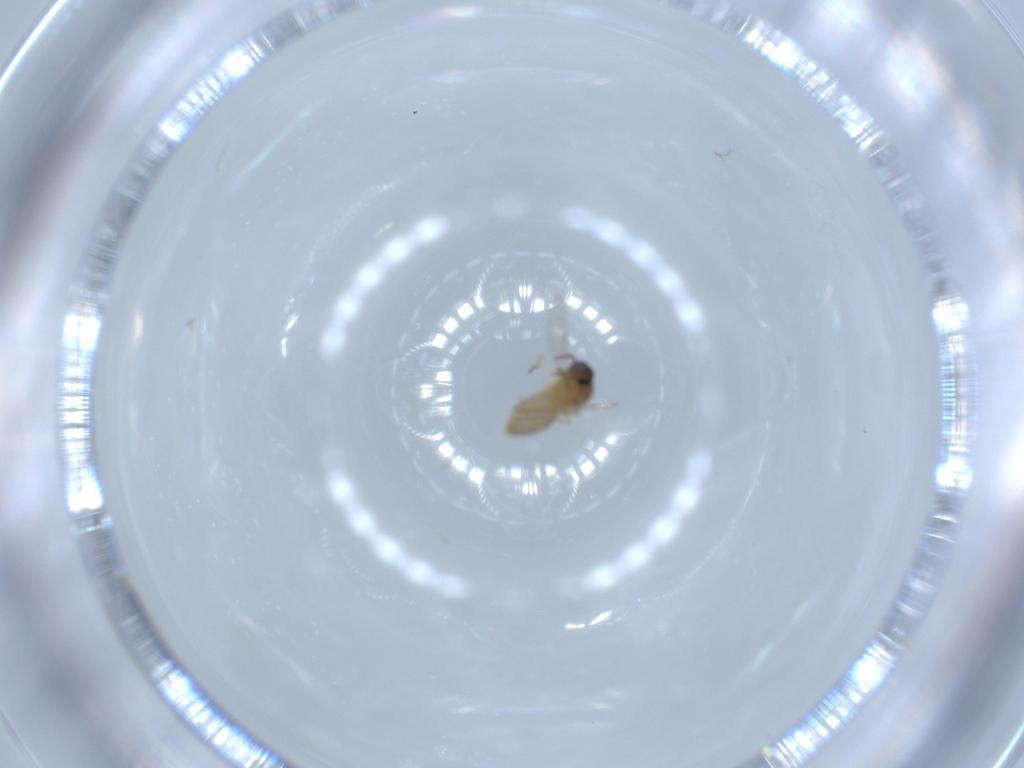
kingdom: Animalia
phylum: Arthropoda
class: Insecta
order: Diptera
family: Ceratopogonidae
